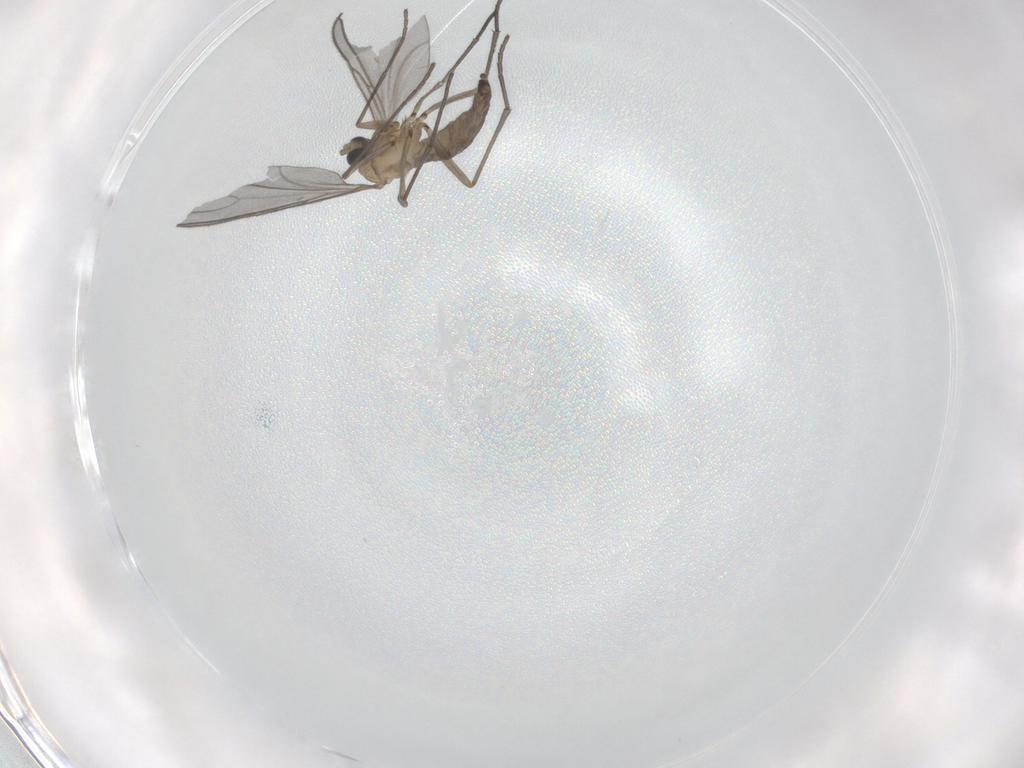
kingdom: Animalia
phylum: Arthropoda
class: Insecta
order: Diptera
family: Sciaridae
